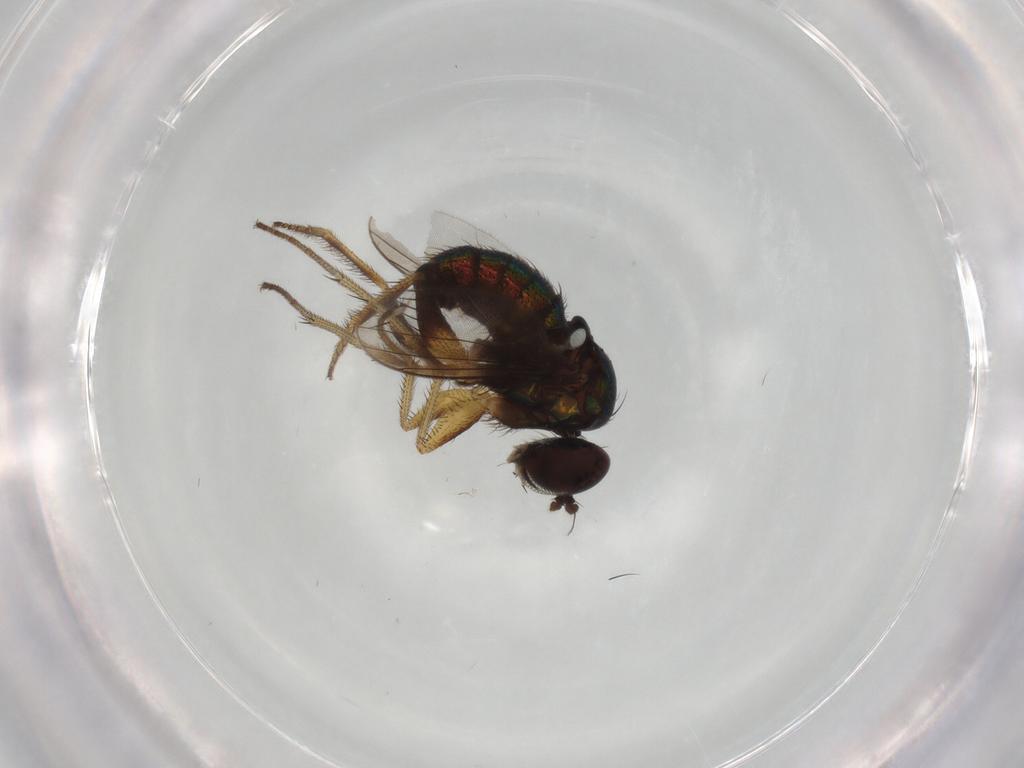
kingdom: Animalia
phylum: Arthropoda
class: Insecta
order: Diptera
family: Dolichopodidae
